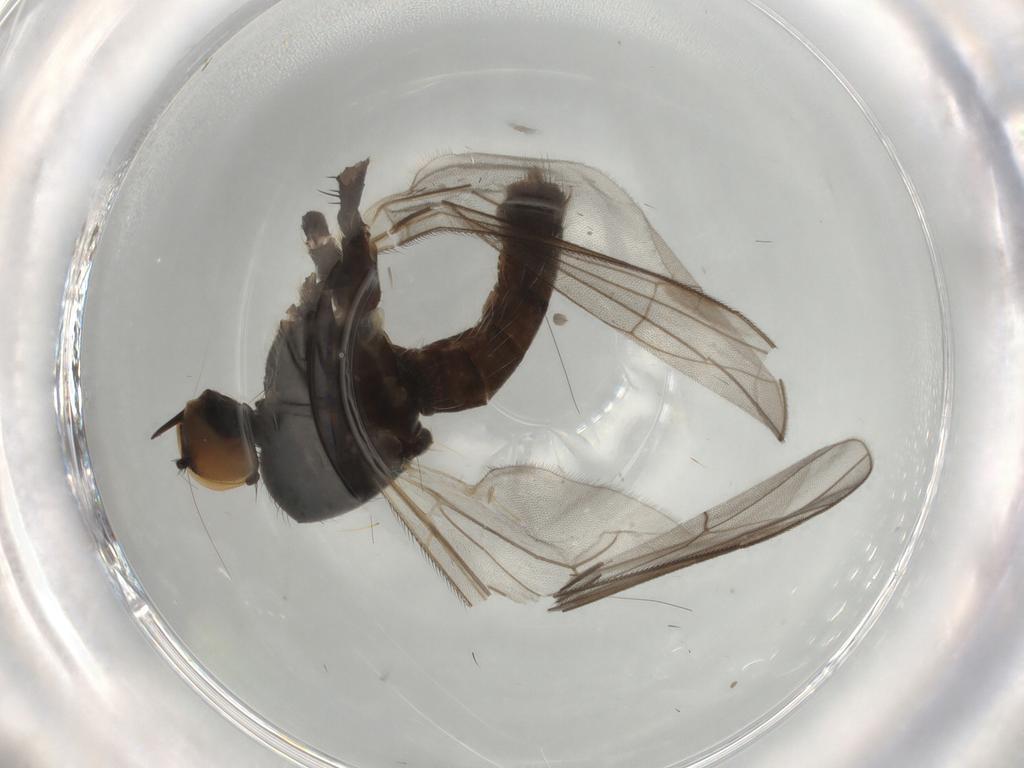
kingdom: Animalia
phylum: Arthropoda
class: Insecta
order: Diptera
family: Hybotidae
